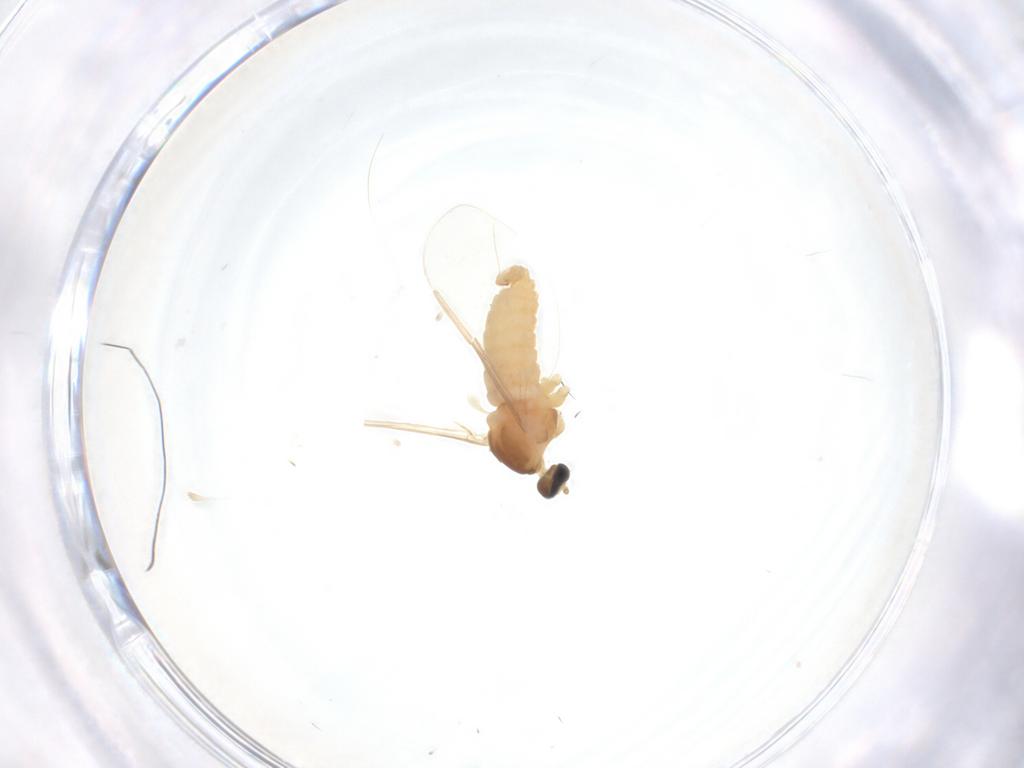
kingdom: Animalia
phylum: Arthropoda
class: Insecta
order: Diptera
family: Cecidomyiidae
